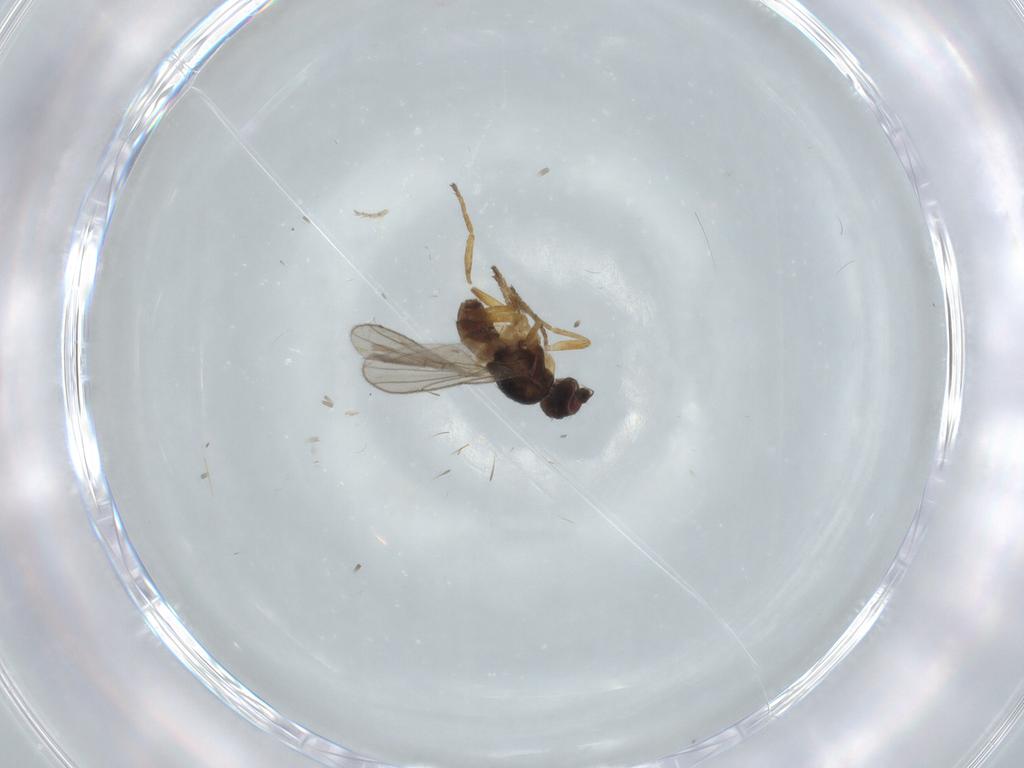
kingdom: Animalia
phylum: Arthropoda
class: Insecta
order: Diptera
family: Chloropidae
